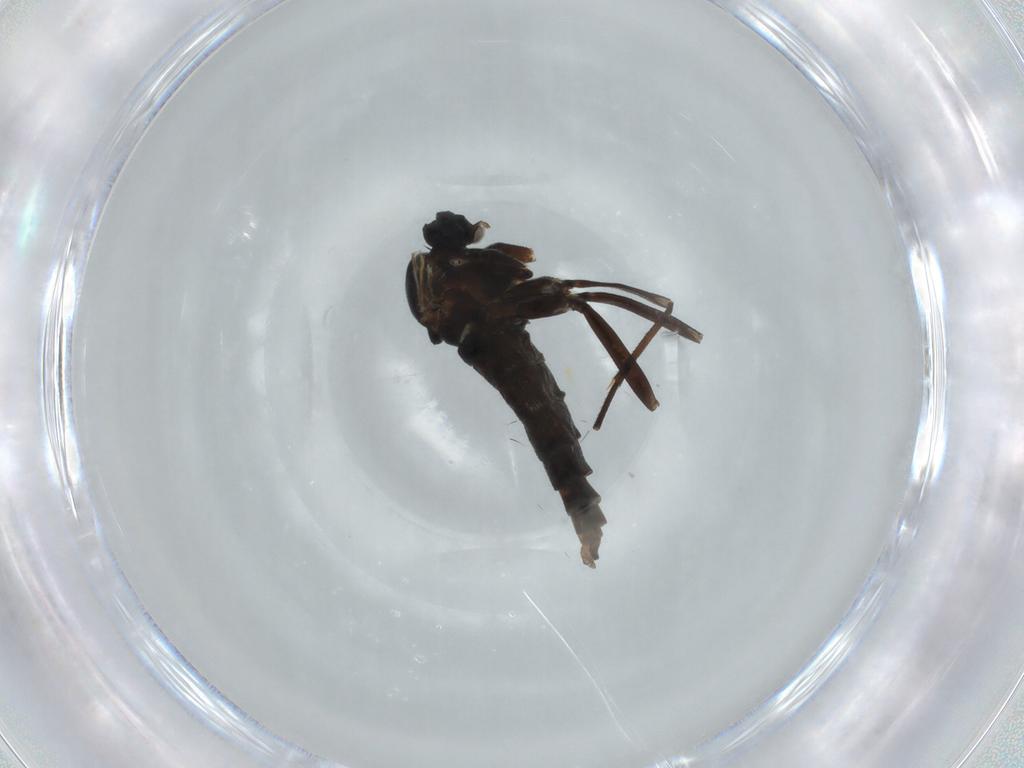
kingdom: Animalia
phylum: Arthropoda
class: Insecta
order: Diptera
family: Sciaridae
